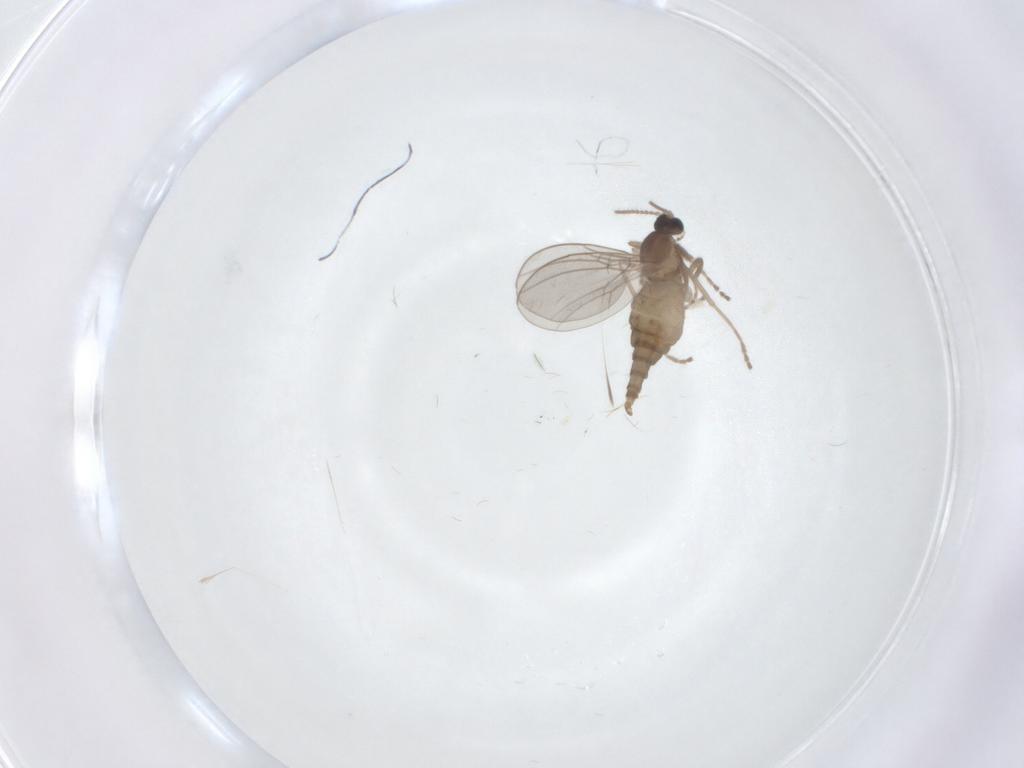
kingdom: Animalia
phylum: Arthropoda
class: Insecta
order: Diptera
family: Cecidomyiidae
